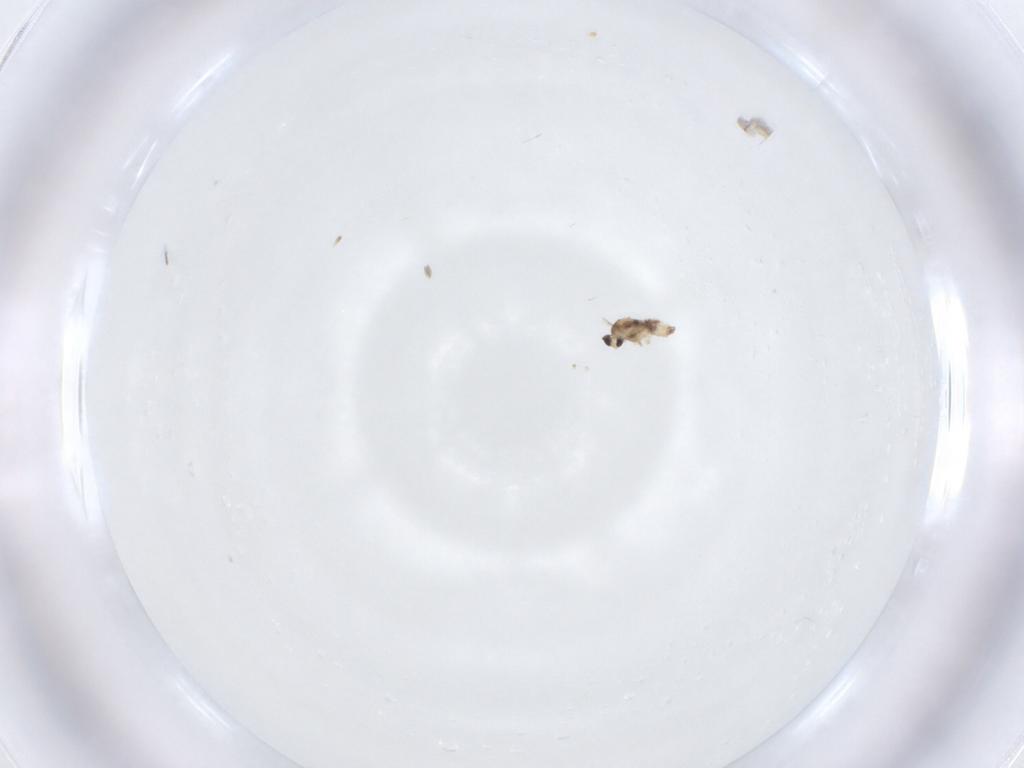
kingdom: Animalia
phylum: Arthropoda
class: Insecta
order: Diptera
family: Cecidomyiidae
